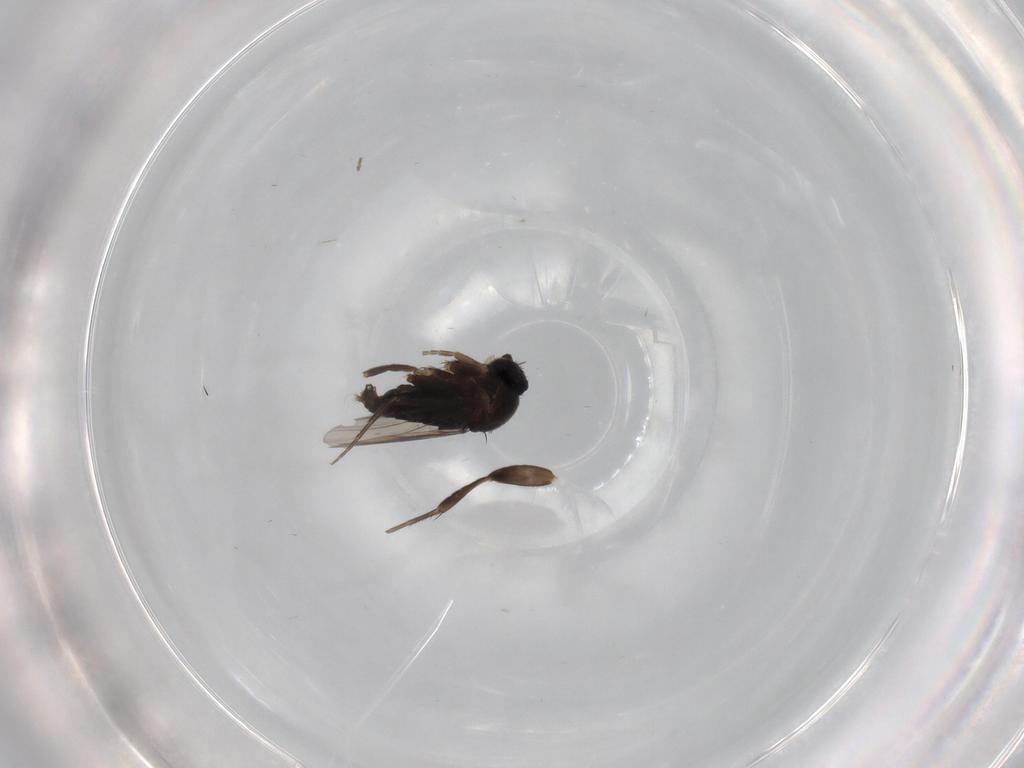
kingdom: Animalia
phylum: Arthropoda
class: Insecta
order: Diptera
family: Phoridae
